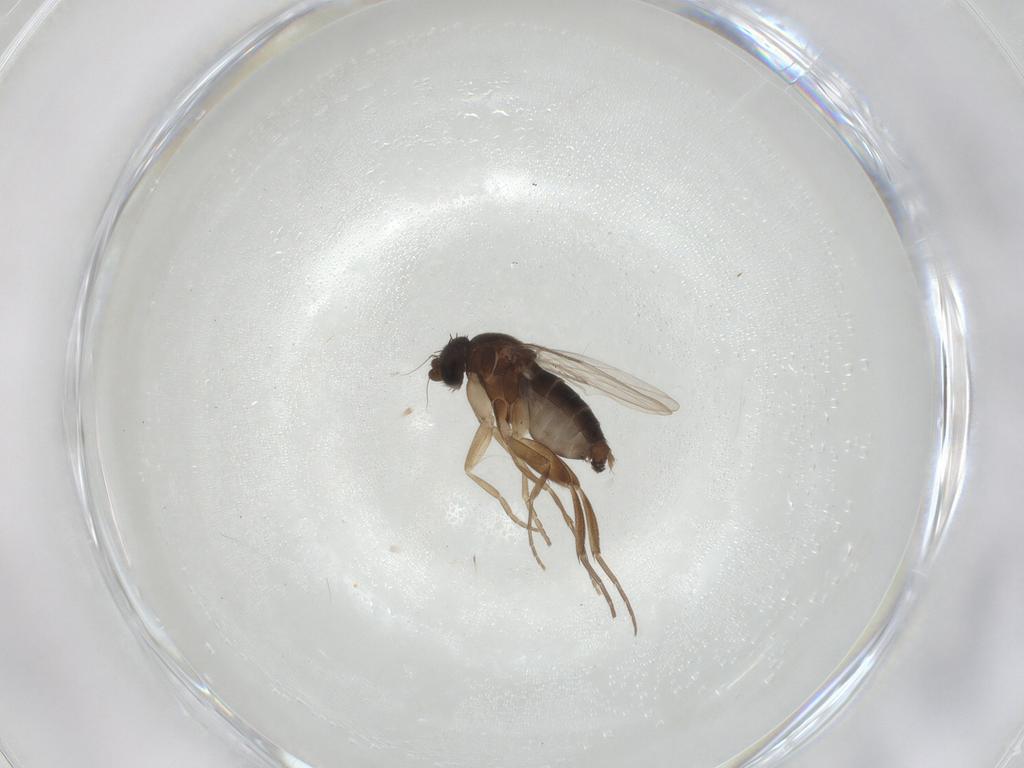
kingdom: Animalia
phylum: Arthropoda
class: Insecta
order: Diptera
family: Phoridae
